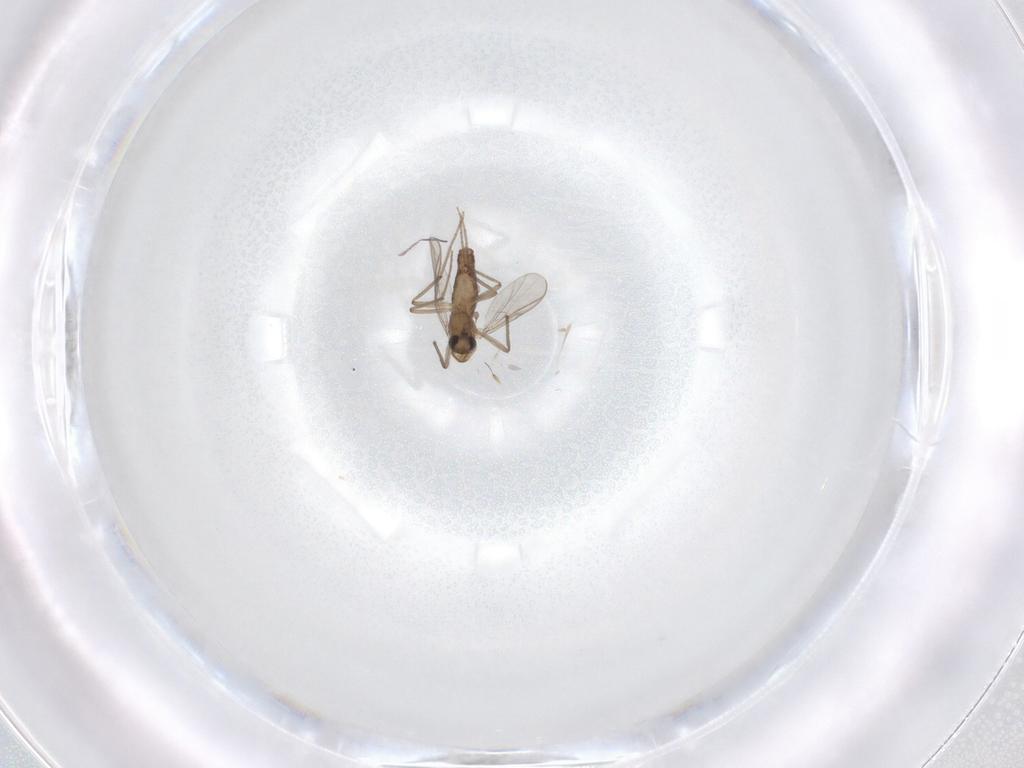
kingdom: Animalia
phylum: Arthropoda
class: Insecta
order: Diptera
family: Chironomidae
